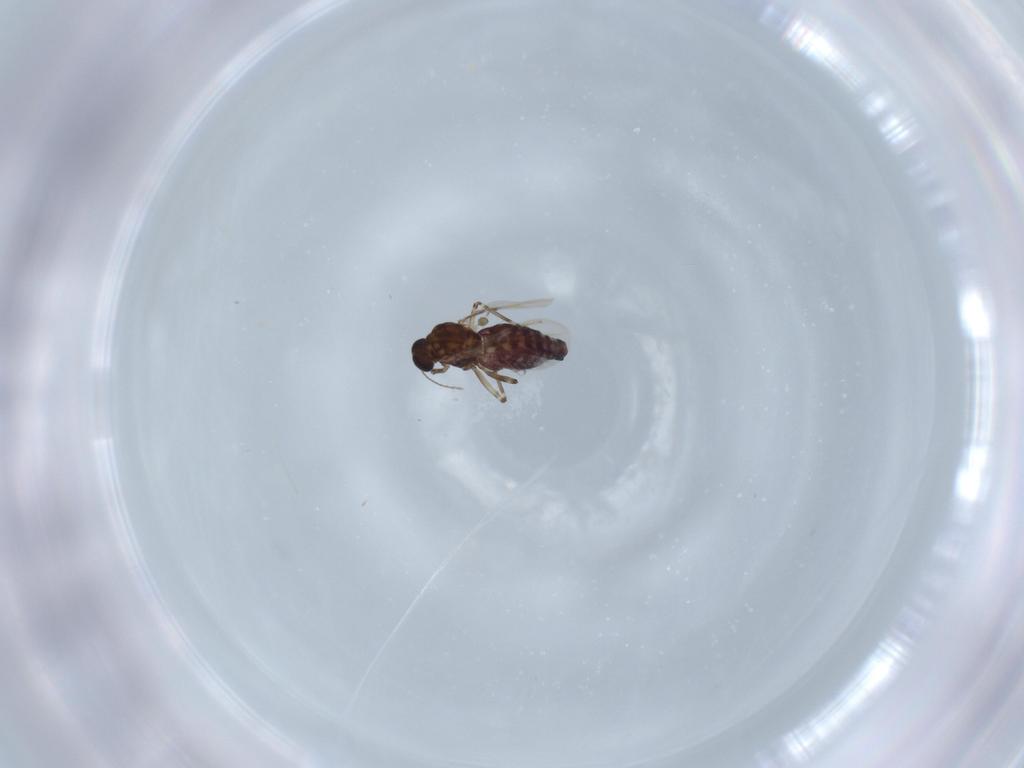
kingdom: Animalia
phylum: Arthropoda
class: Insecta
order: Diptera
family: Ceratopogonidae
